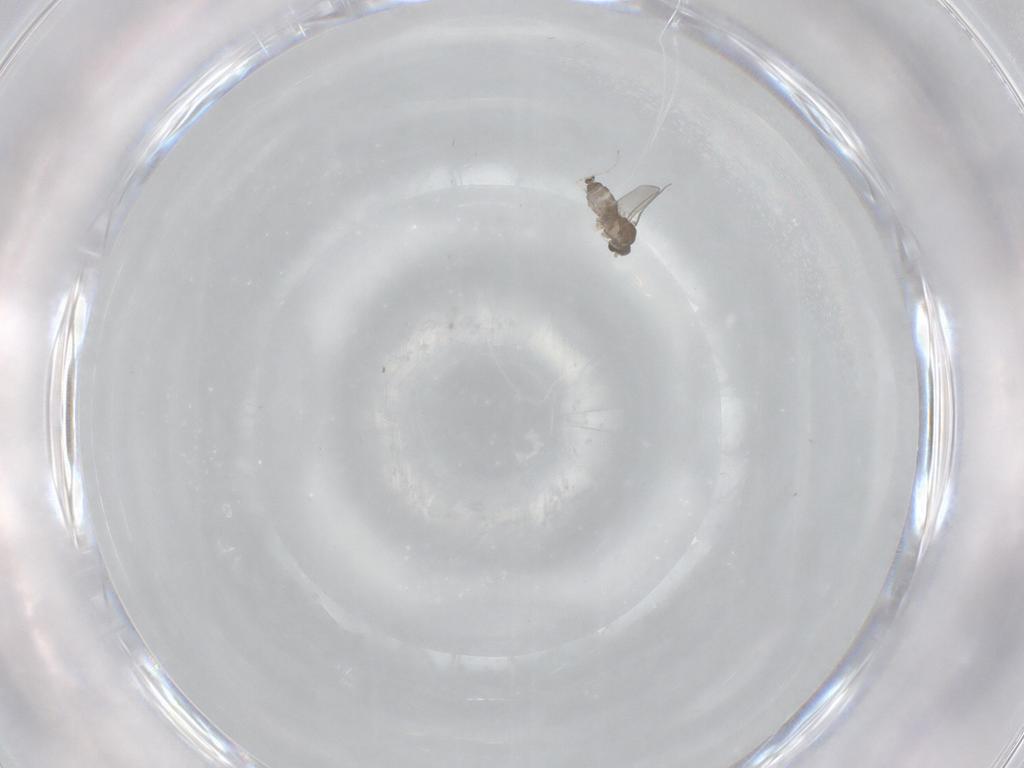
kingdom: Animalia
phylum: Arthropoda
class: Insecta
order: Diptera
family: Cecidomyiidae
